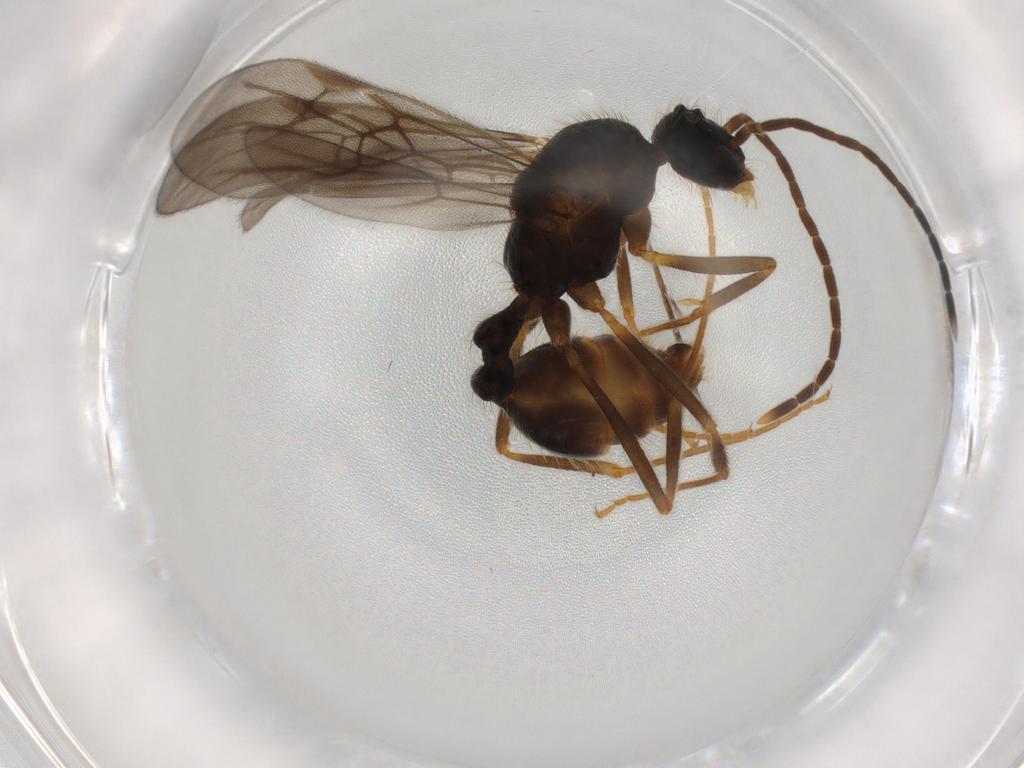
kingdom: Animalia
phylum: Arthropoda
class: Insecta
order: Hymenoptera
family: Formicidae
